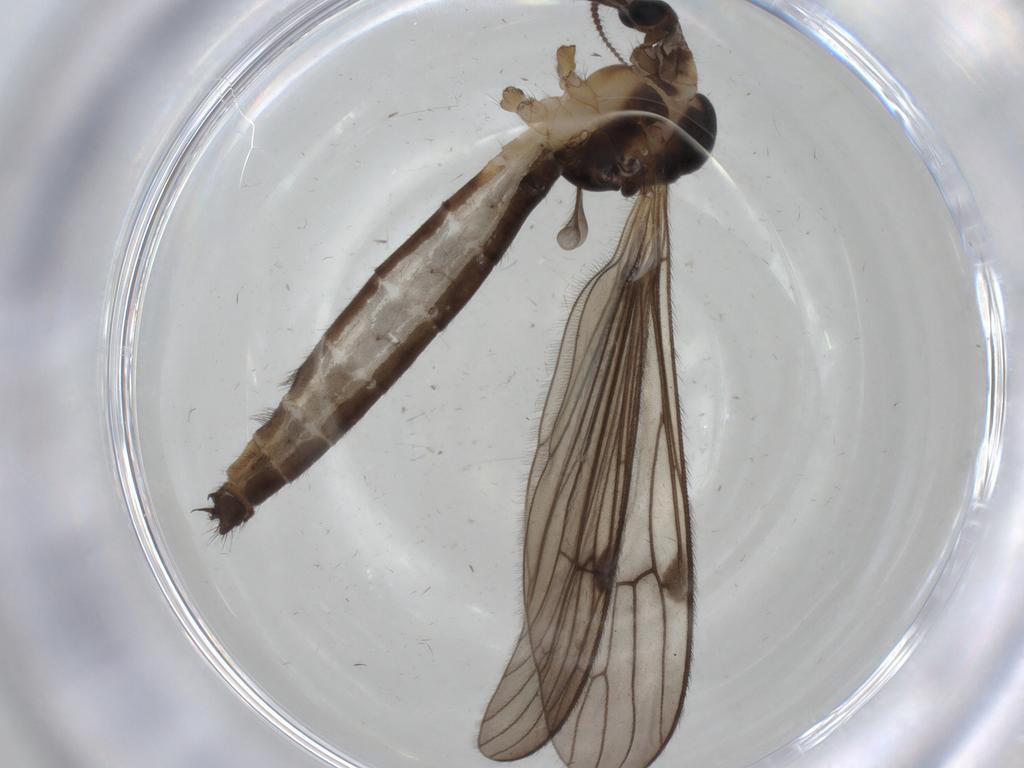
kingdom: Animalia
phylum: Arthropoda
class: Insecta
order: Diptera
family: Limoniidae
